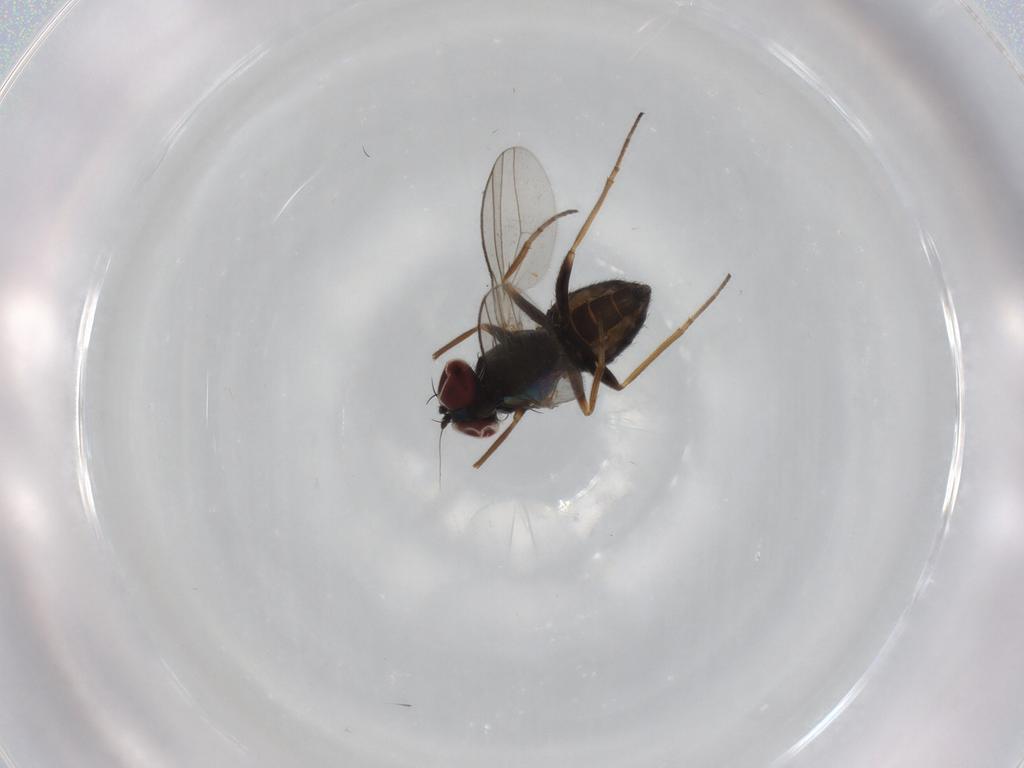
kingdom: Animalia
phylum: Arthropoda
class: Insecta
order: Diptera
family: Dolichopodidae
